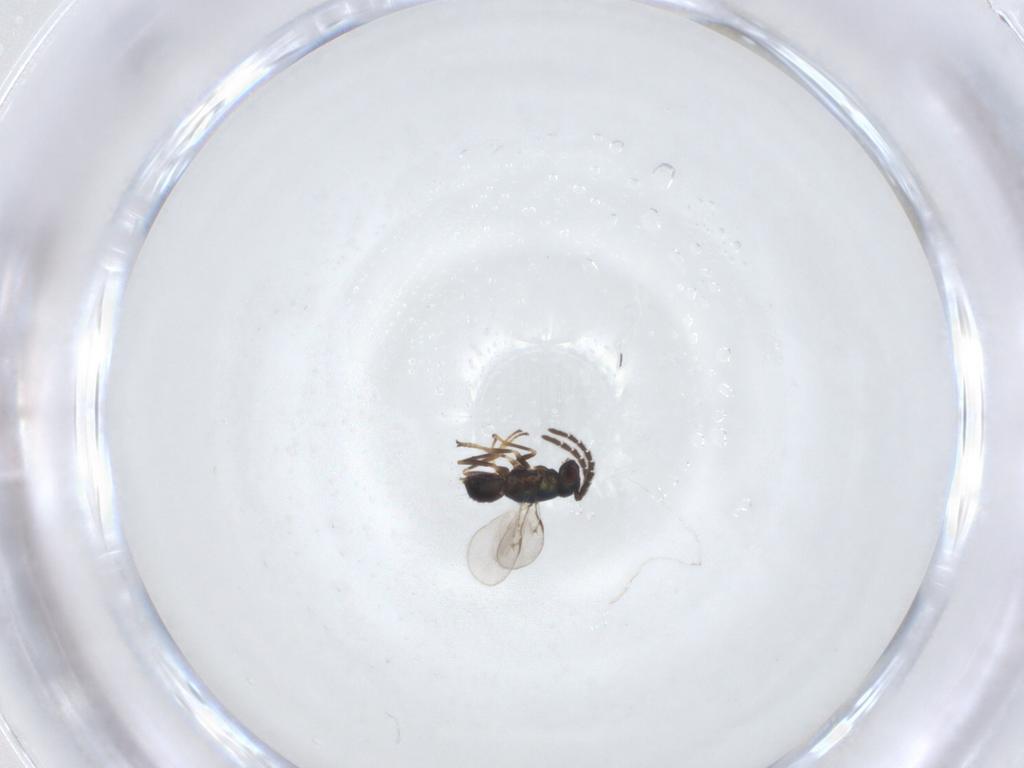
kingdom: Animalia
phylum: Arthropoda
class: Insecta
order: Hymenoptera
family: Encyrtidae
